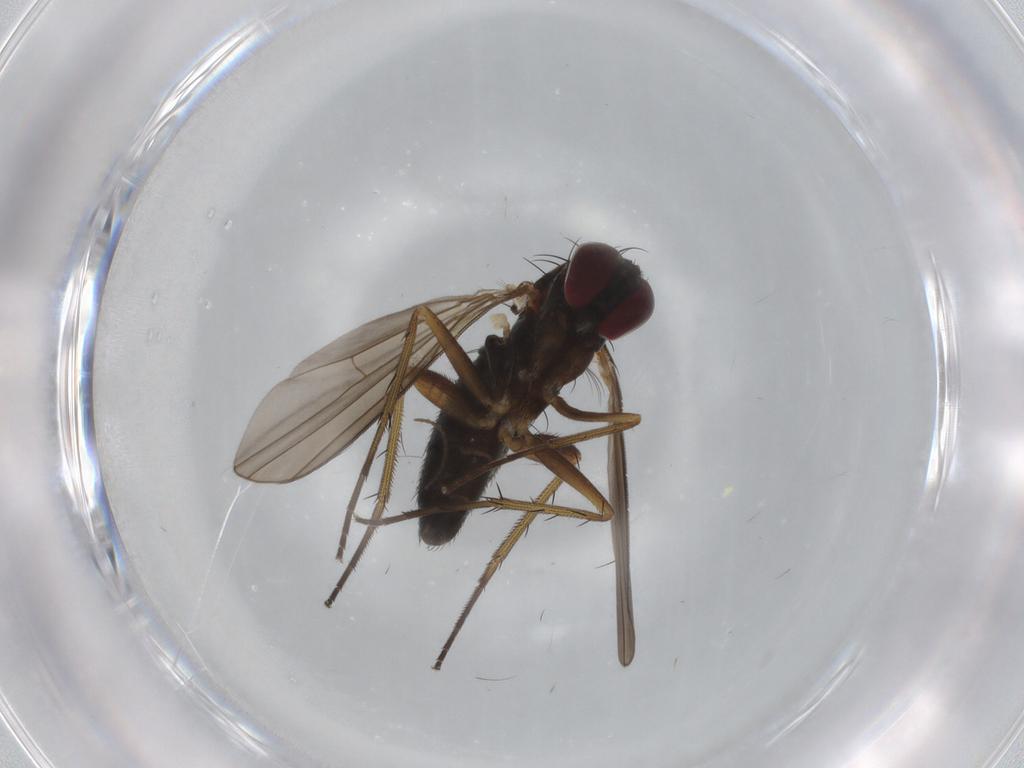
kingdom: Animalia
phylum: Arthropoda
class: Insecta
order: Diptera
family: Dolichopodidae
